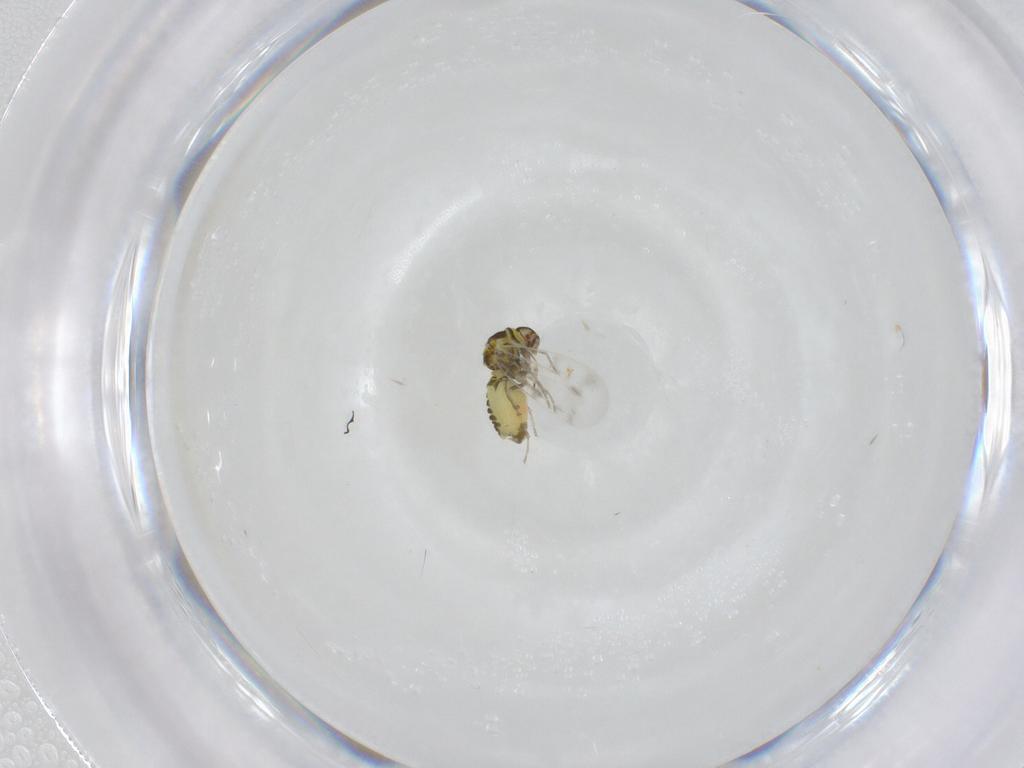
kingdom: Animalia
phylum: Arthropoda
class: Insecta
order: Hemiptera
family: Aleyrodidae
